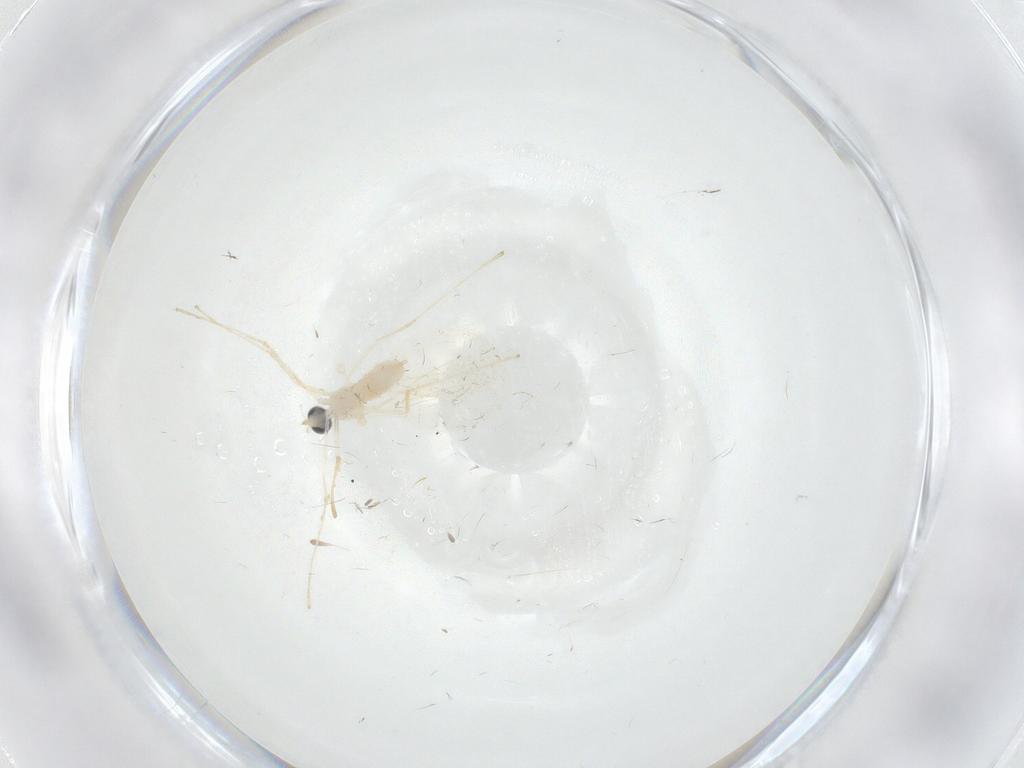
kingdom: Animalia
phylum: Arthropoda
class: Insecta
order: Diptera
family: Cecidomyiidae
